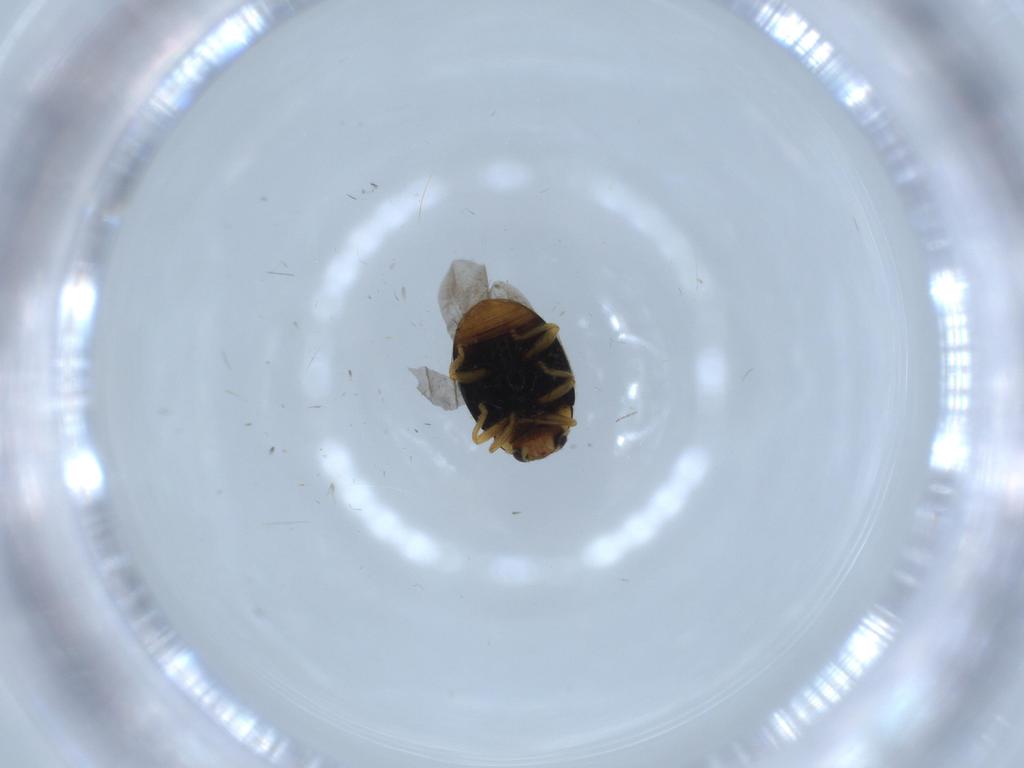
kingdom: Animalia
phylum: Arthropoda
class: Insecta
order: Coleoptera
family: Coccinellidae
